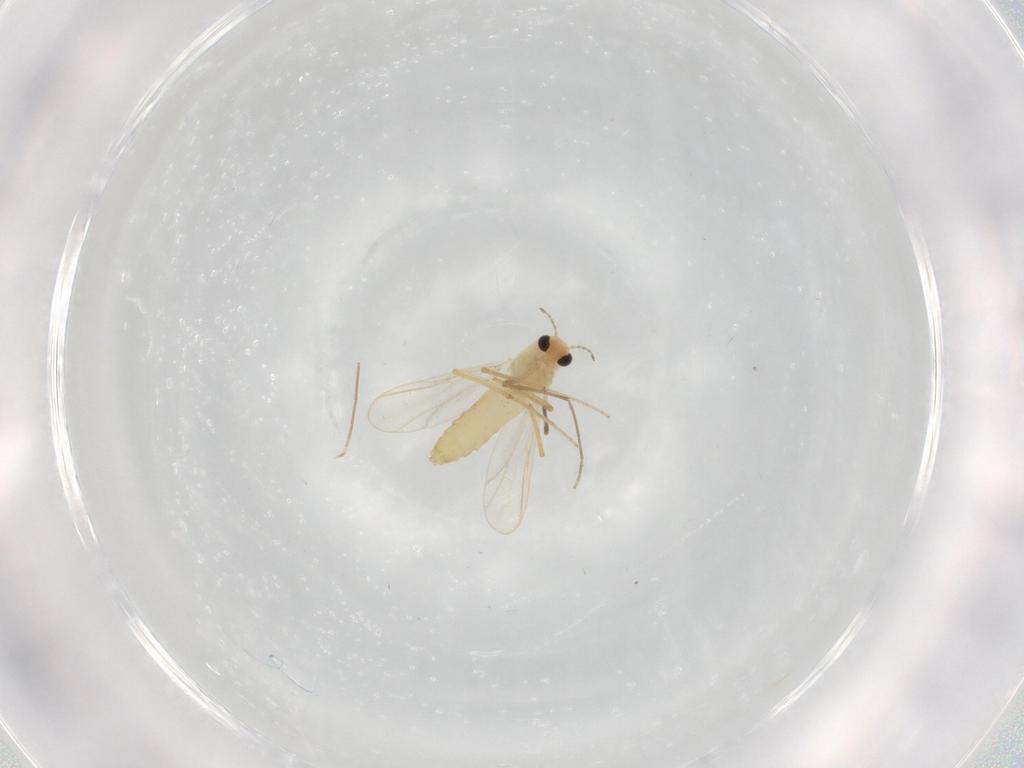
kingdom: Animalia
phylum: Arthropoda
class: Insecta
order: Diptera
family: Chironomidae
